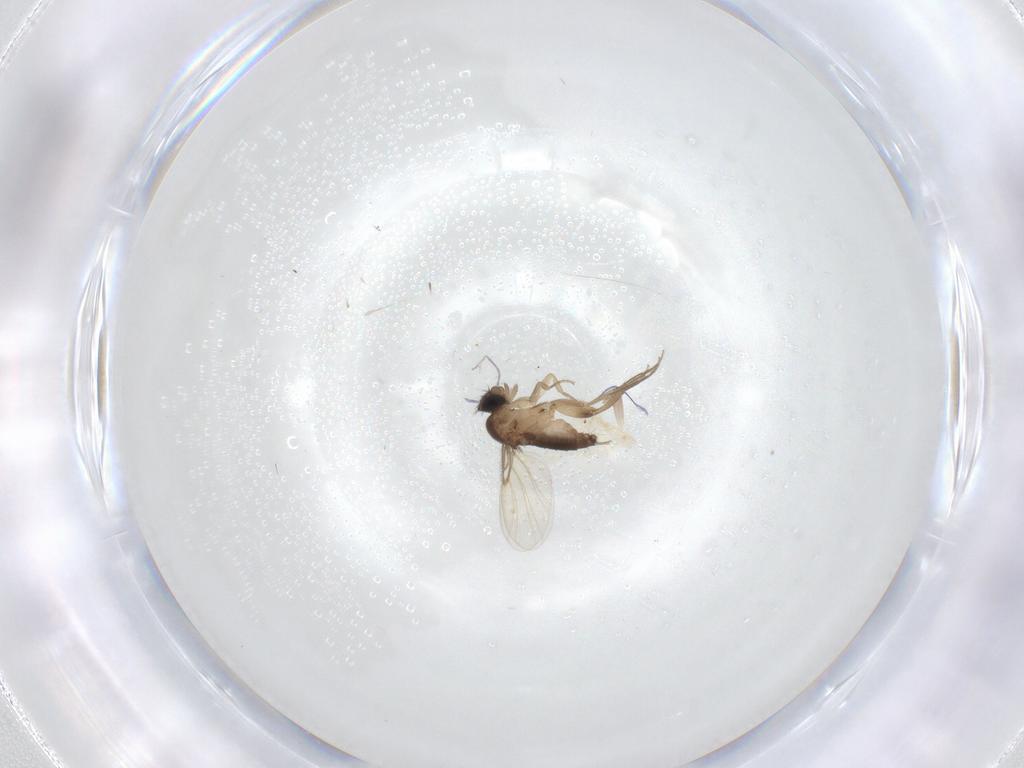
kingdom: Animalia
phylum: Arthropoda
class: Insecta
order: Diptera
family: Phoridae
